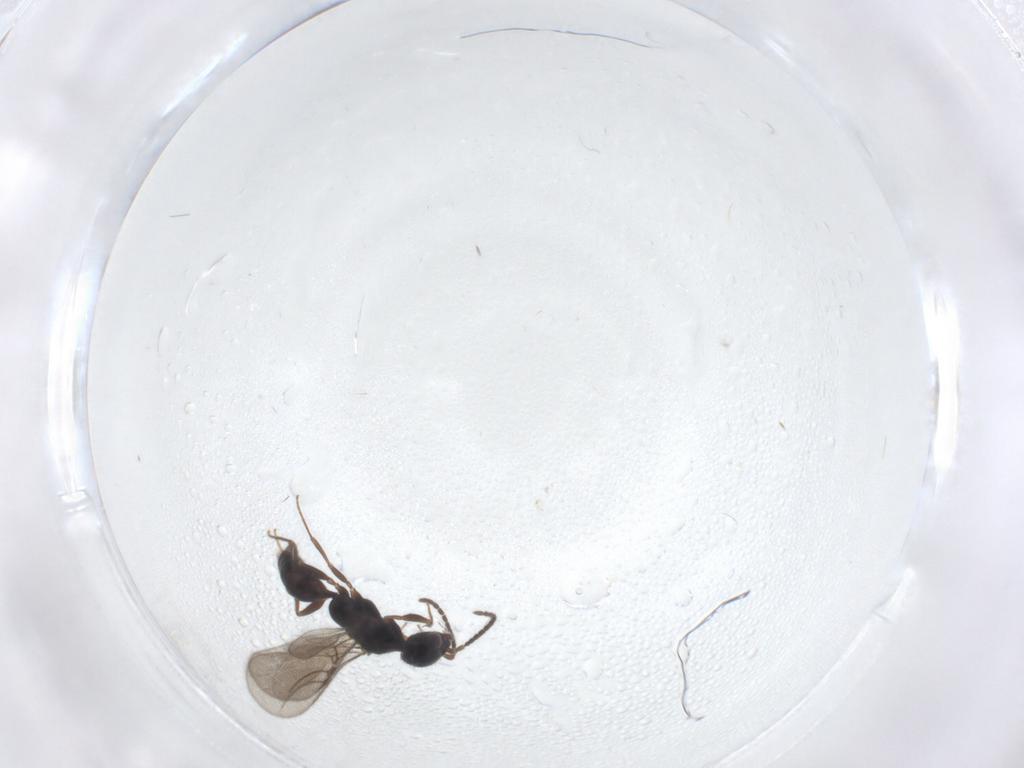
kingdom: Animalia
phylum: Arthropoda
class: Insecta
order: Hymenoptera
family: Bethylidae
